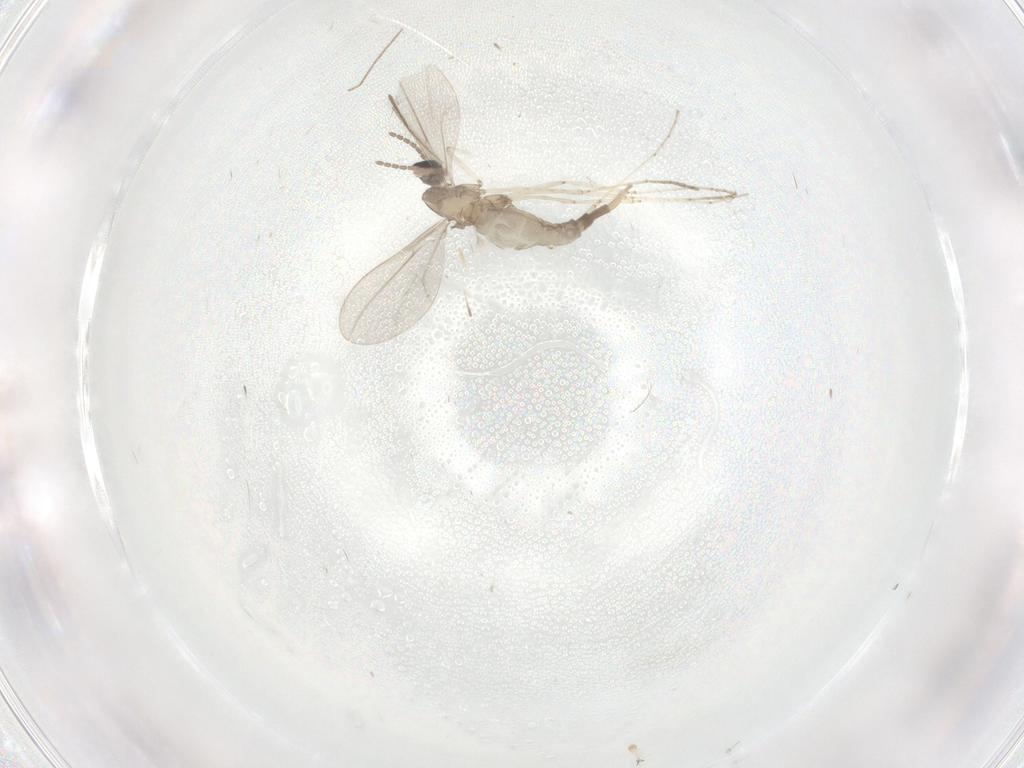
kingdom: Animalia
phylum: Arthropoda
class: Insecta
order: Diptera
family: Cecidomyiidae
